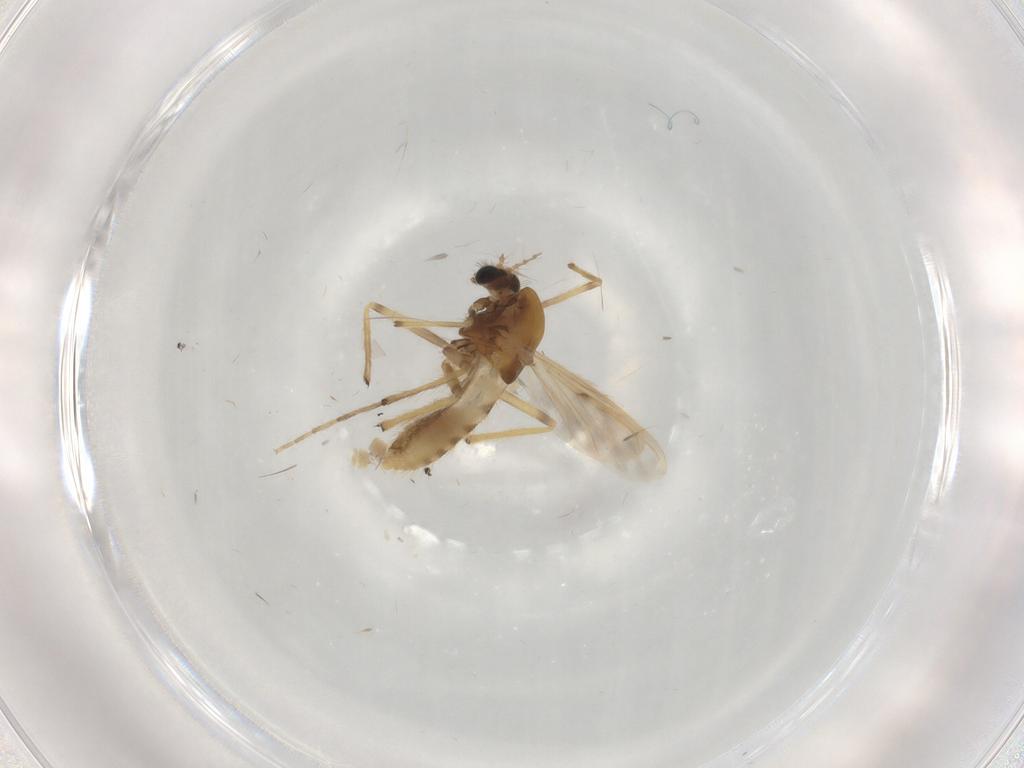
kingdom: Animalia
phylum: Arthropoda
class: Insecta
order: Diptera
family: Chironomidae
